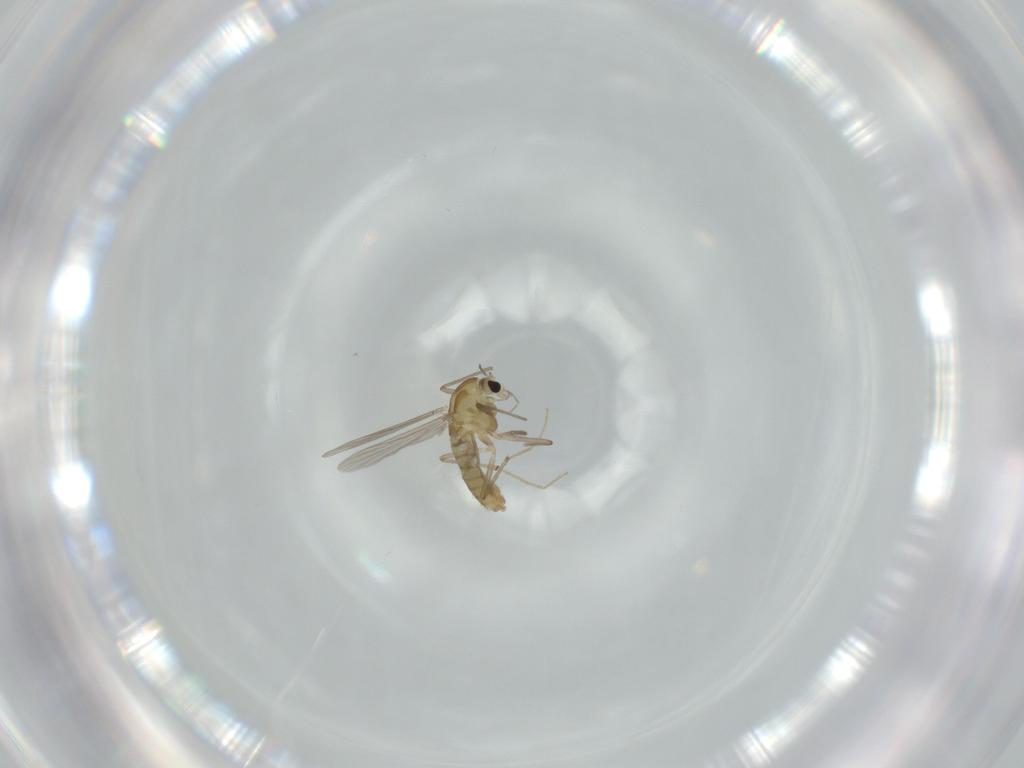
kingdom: Animalia
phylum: Arthropoda
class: Insecta
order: Diptera
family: Chironomidae
